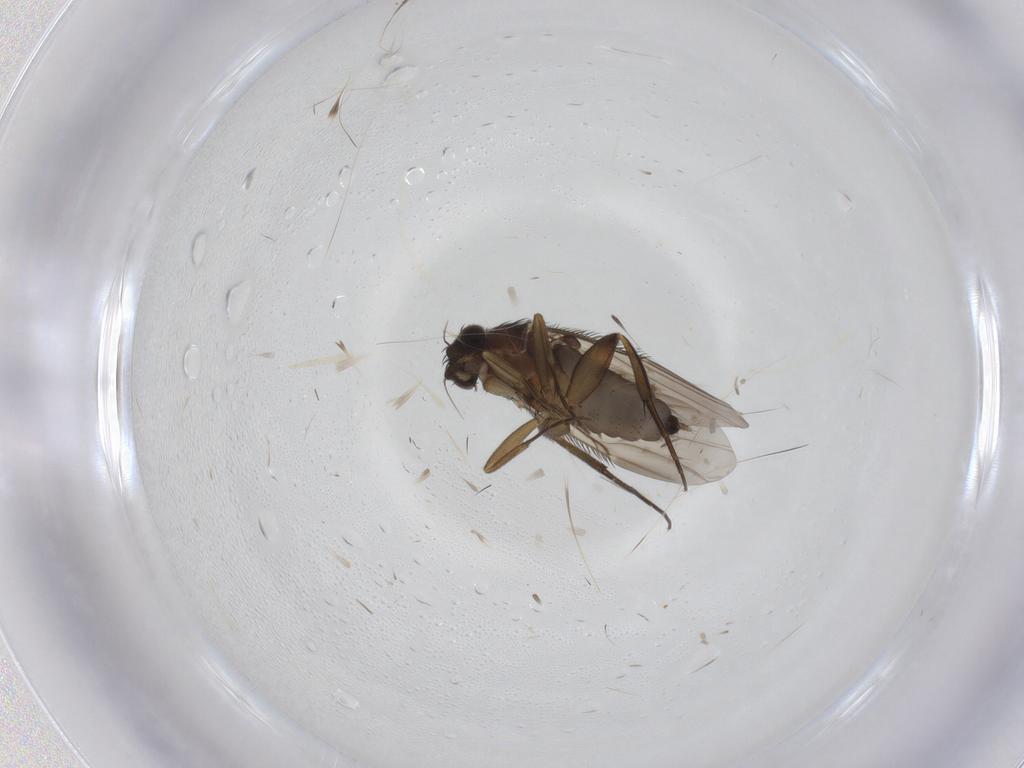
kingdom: Animalia
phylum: Arthropoda
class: Insecta
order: Diptera
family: Phoridae
